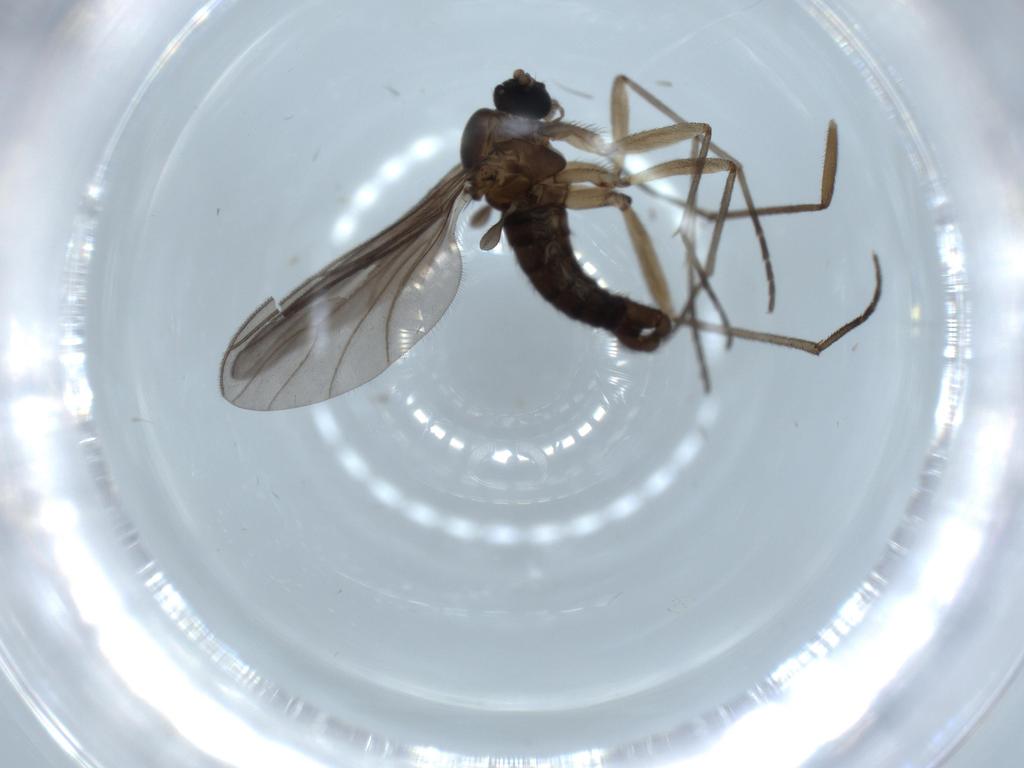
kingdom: Animalia
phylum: Arthropoda
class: Insecta
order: Diptera
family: Sciaridae
